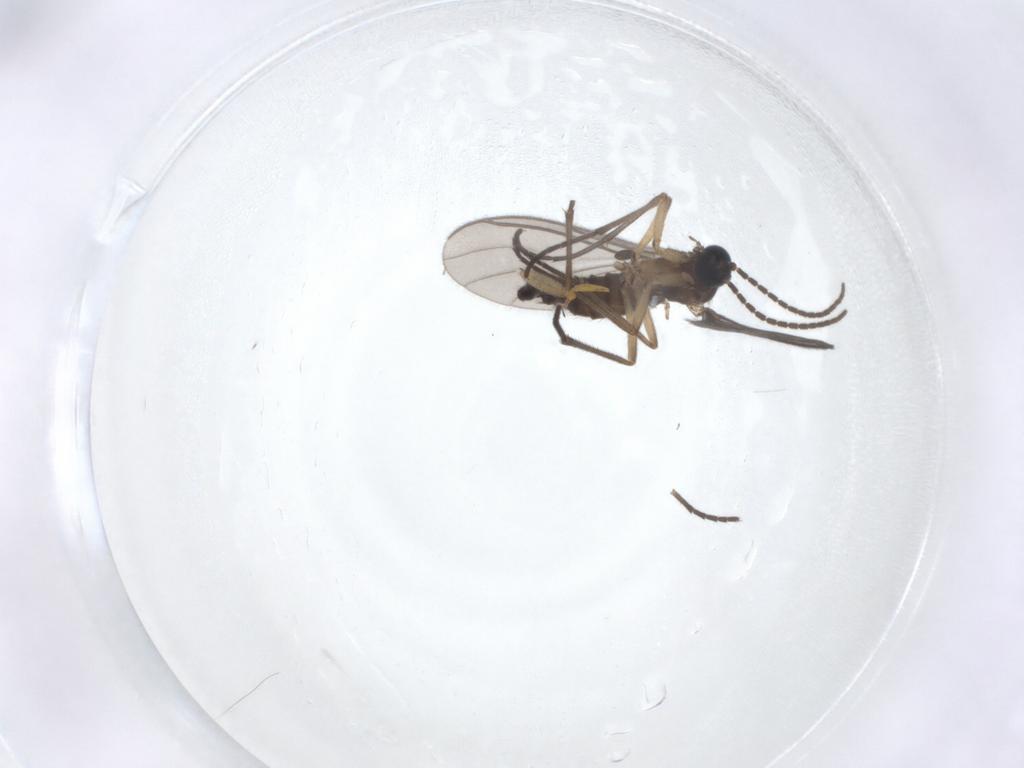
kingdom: Animalia
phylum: Arthropoda
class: Insecta
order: Diptera
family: Sciaridae
